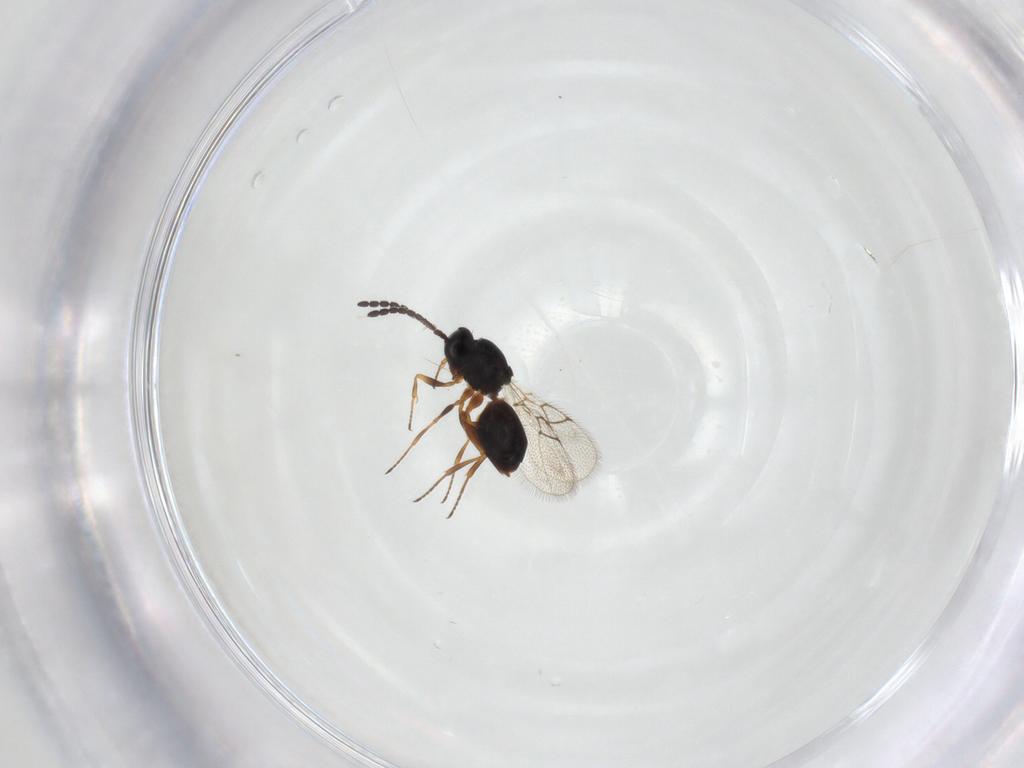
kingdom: Animalia
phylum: Arthropoda
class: Insecta
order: Hymenoptera
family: Figitidae
